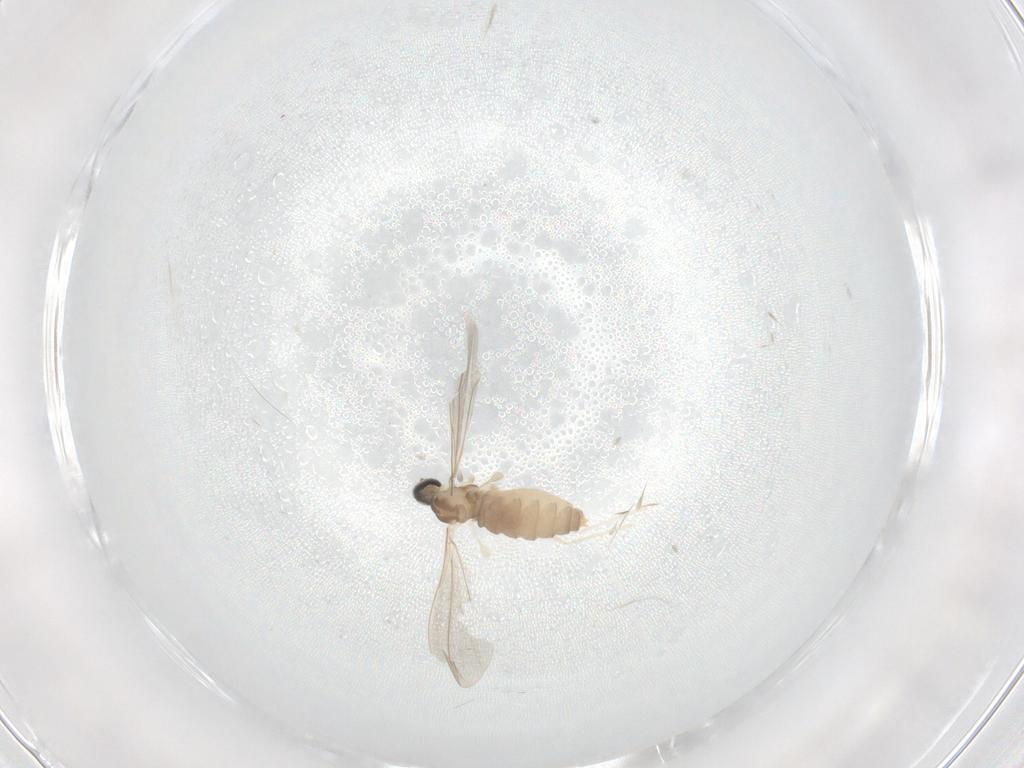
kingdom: Animalia
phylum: Arthropoda
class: Insecta
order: Diptera
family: Cecidomyiidae
